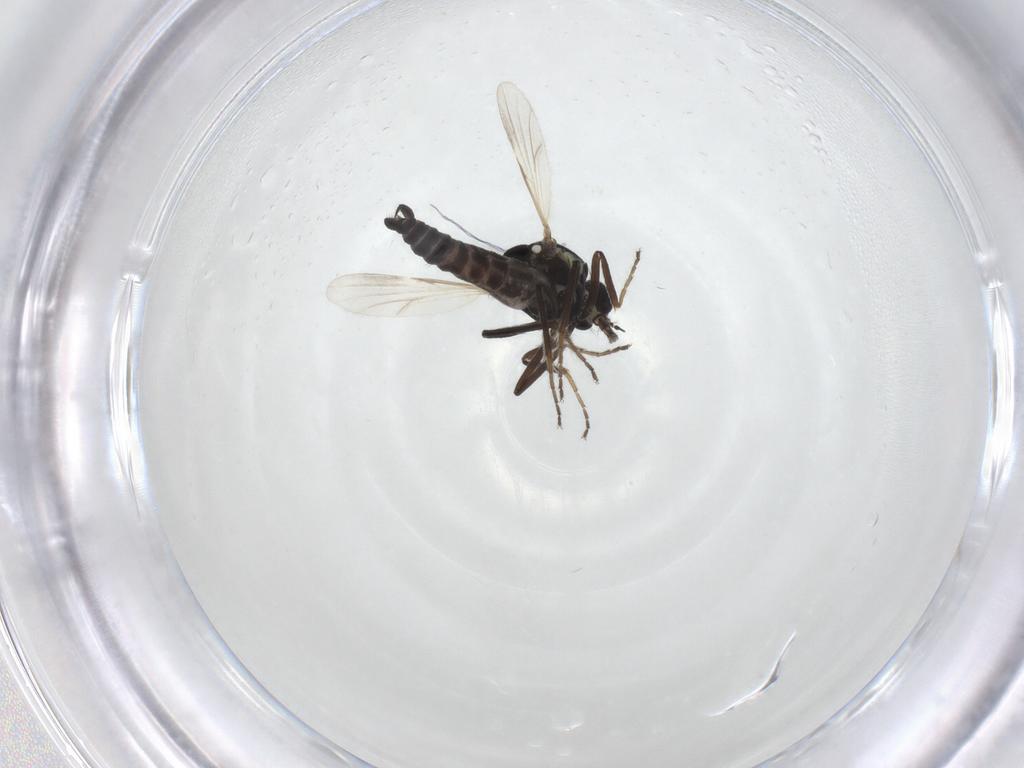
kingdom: Animalia
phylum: Arthropoda
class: Insecta
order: Diptera
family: Ceratopogonidae
